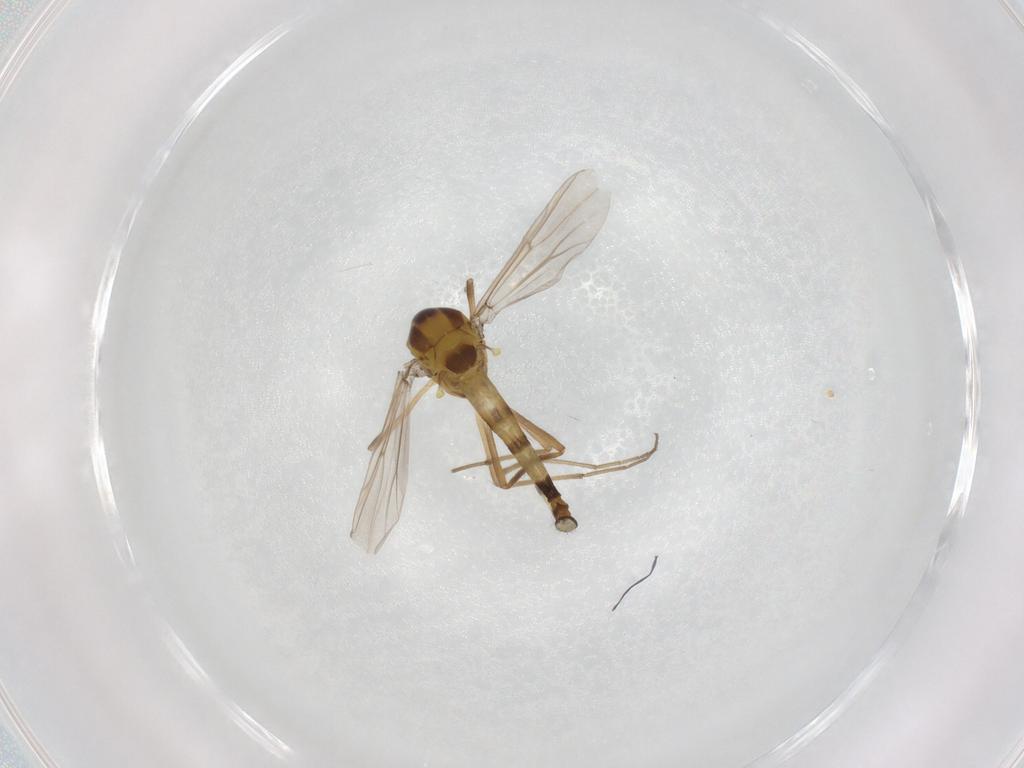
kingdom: Animalia
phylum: Arthropoda
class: Insecta
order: Diptera
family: Chironomidae
